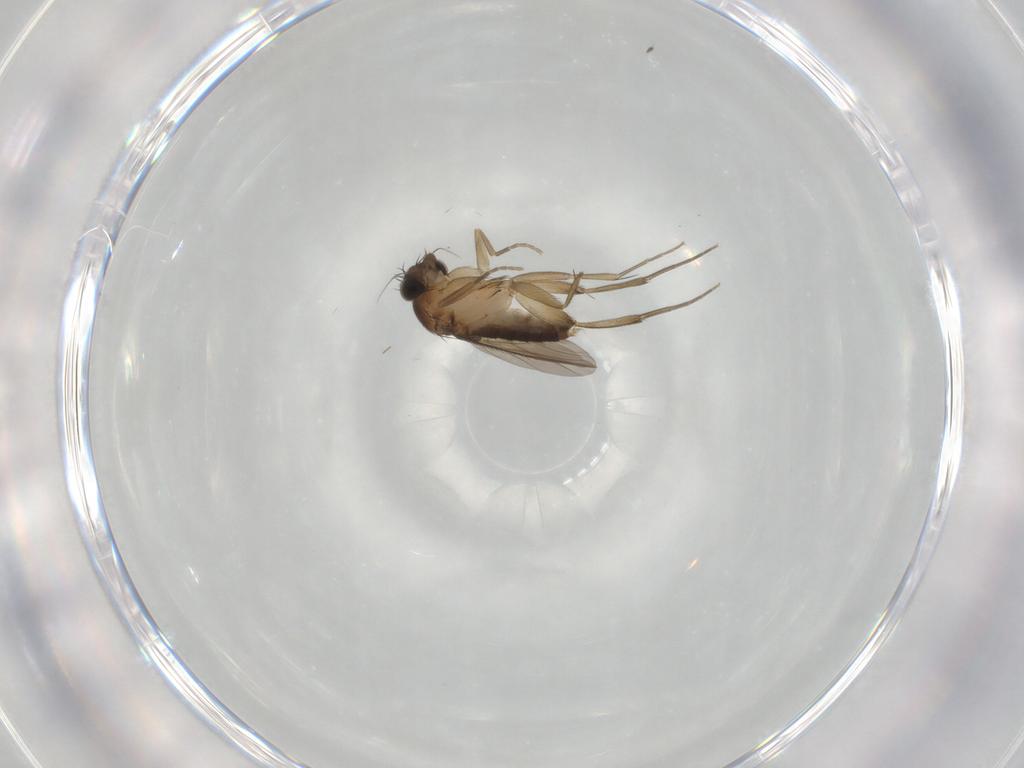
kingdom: Animalia
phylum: Arthropoda
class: Insecta
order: Diptera
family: Phoridae
